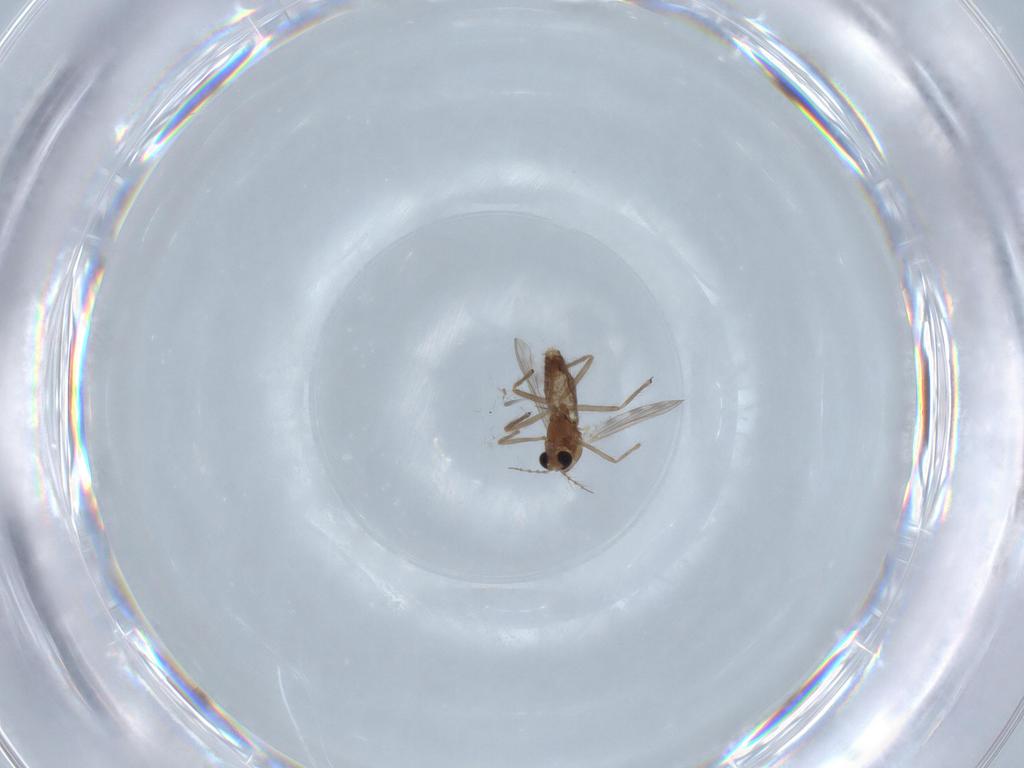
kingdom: Animalia
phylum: Arthropoda
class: Insecta
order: Diptera
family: Chironomidae
